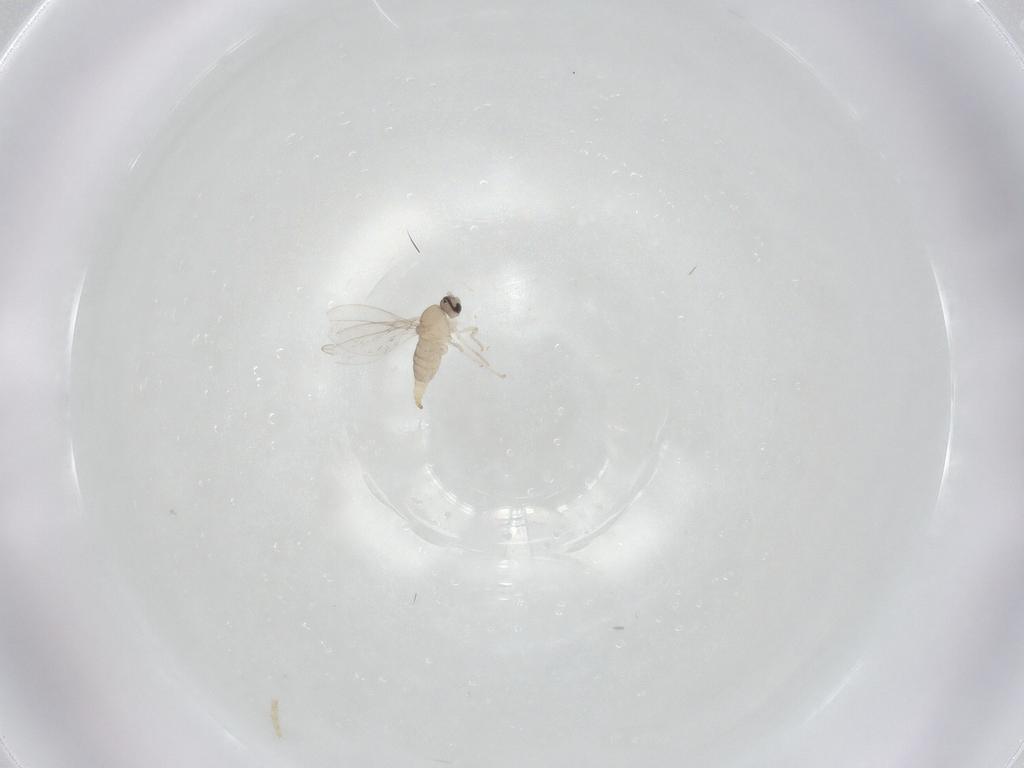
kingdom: Animalia
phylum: Arthropoda
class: Insecta
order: Diptera
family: Cecidomyiidae
